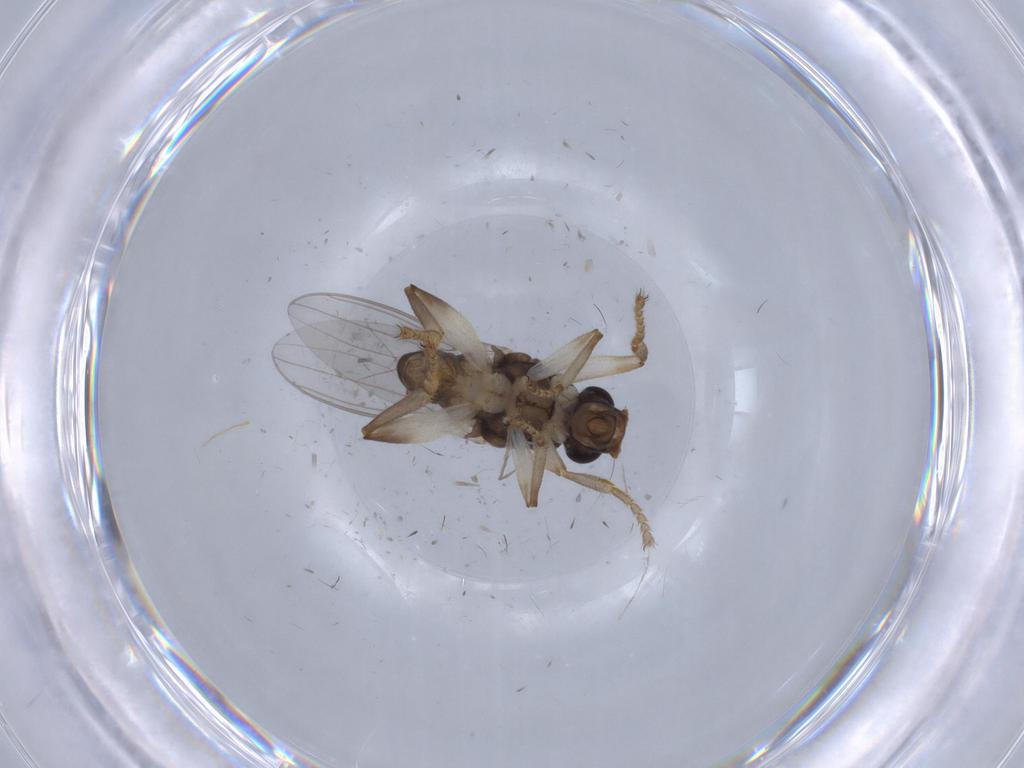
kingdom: Animalia
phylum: Arthropoda
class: Insecta
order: Diptera
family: Sphaeroceridae
